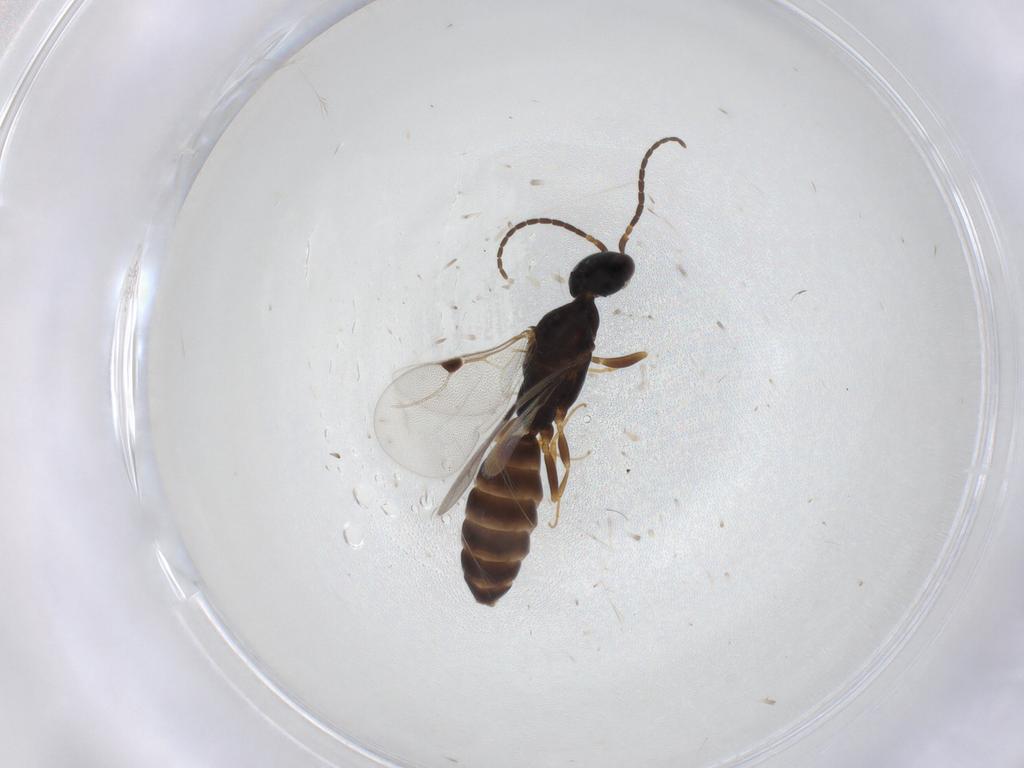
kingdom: Animalia
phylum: Arthropoda
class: Insecta
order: Hymenoptera
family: Bethylidae
